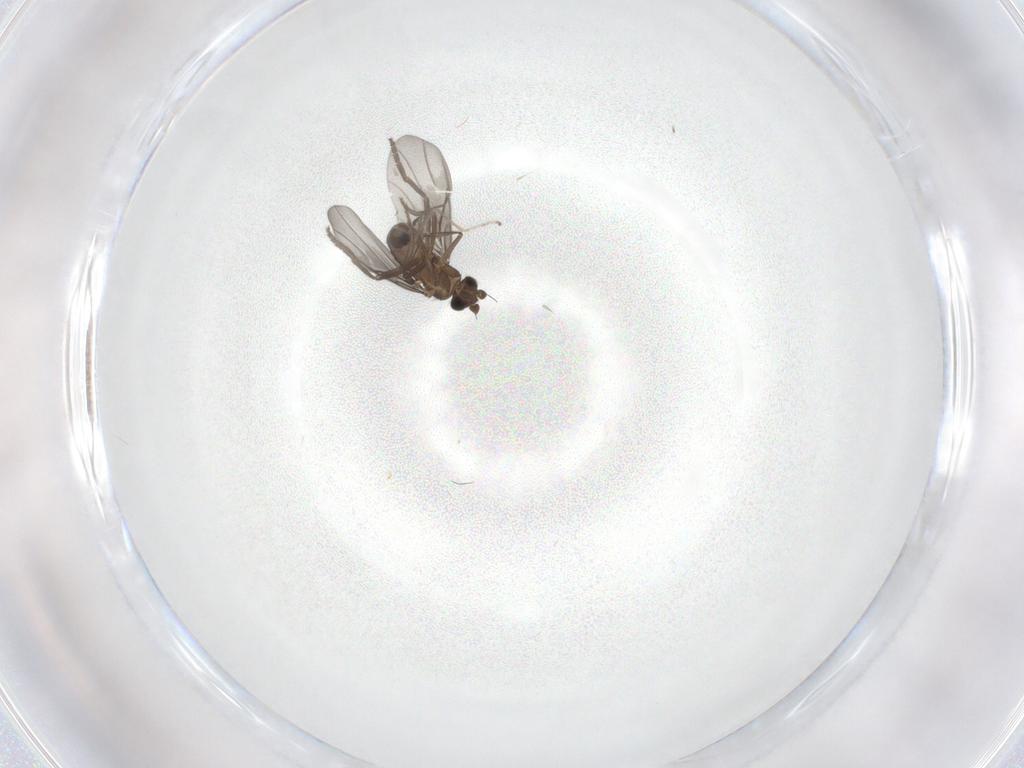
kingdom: Animalia
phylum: Arthropoda
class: Insecta
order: Diptera
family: Phoridae
